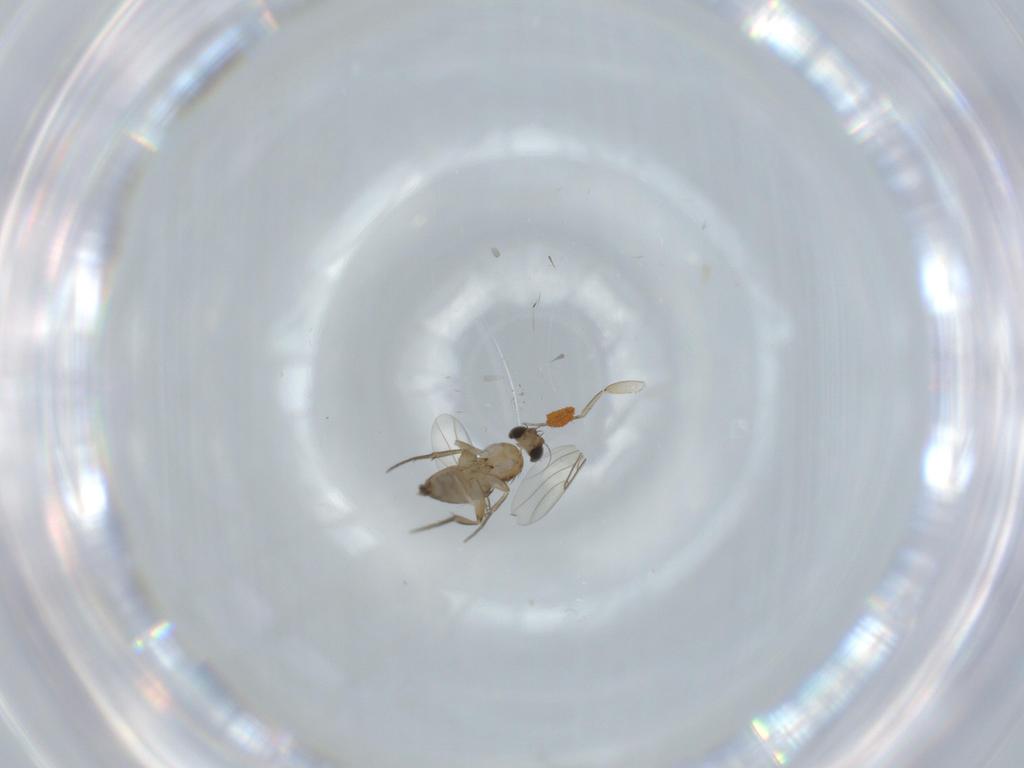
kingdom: Animalia
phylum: Arthropoda
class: Insecta
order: Diptera
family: Phoridae
